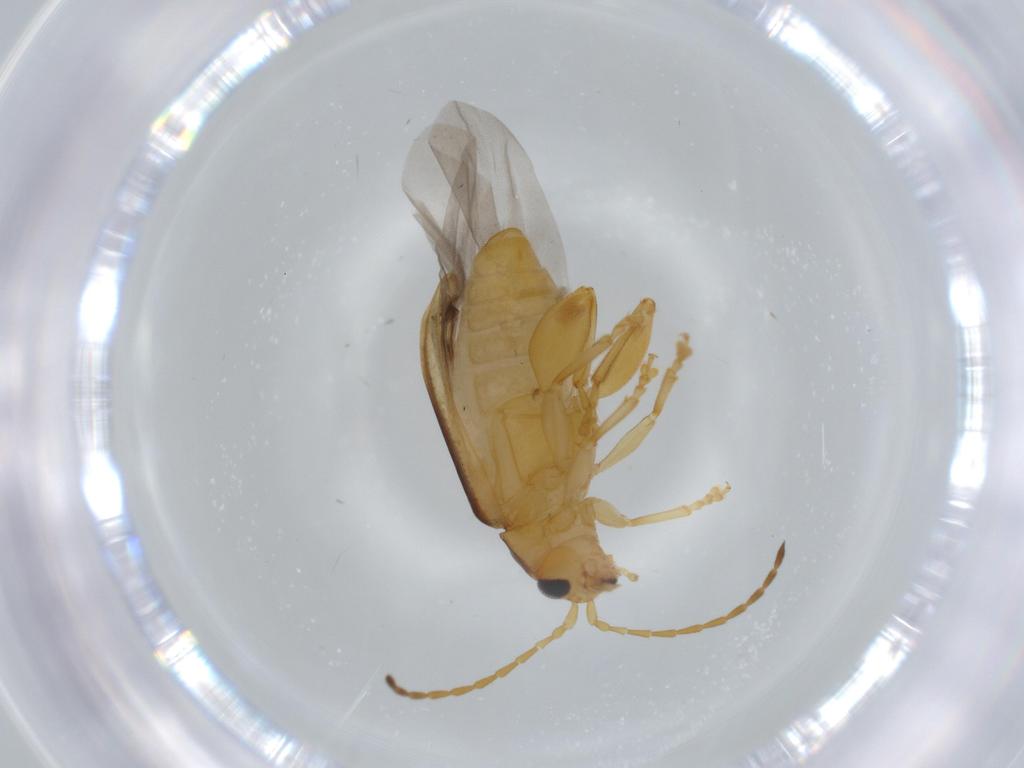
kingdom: Animalia
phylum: Arthropoda
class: Insecta
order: Coleoptera
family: Chrysomelidae
